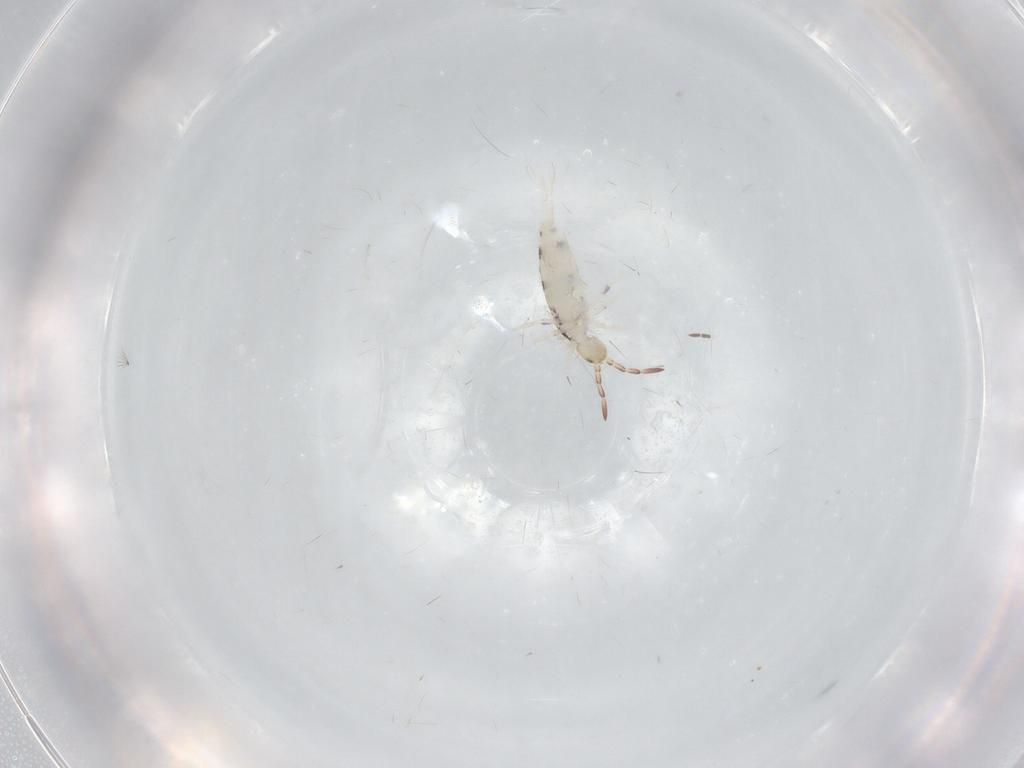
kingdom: Animalia
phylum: Arthropoda
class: Collembola
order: Entomobryomorpha
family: Entomobryidae
